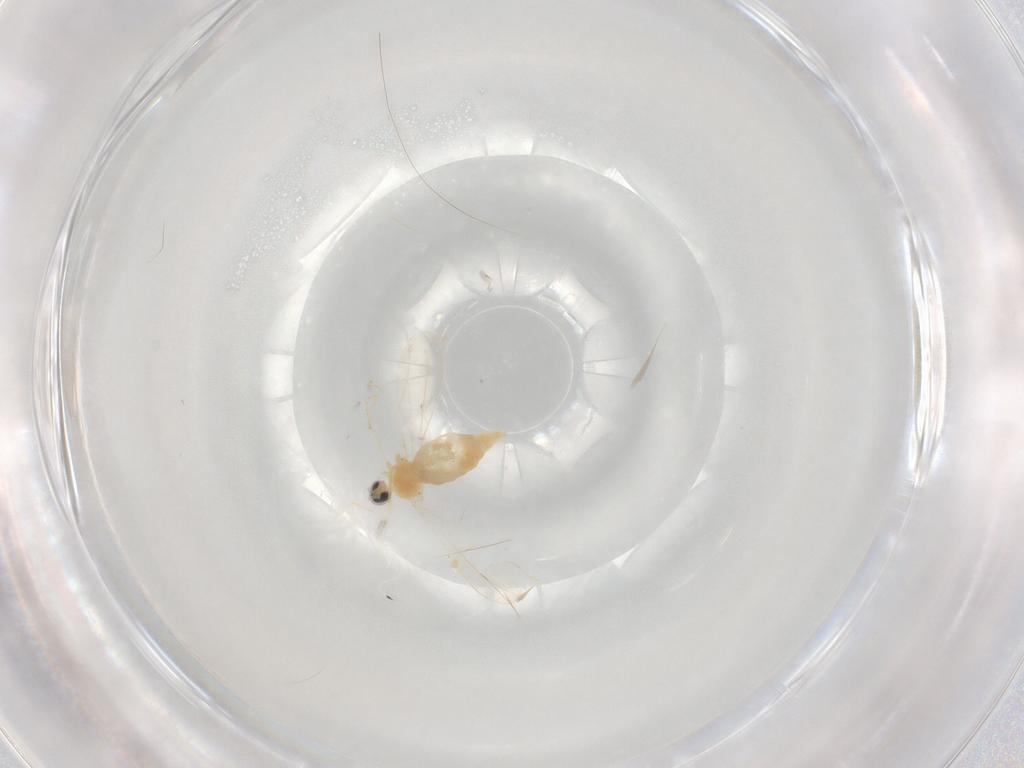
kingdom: Animalia
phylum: Arthropoda
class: Insecta
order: Diptera
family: Cecidomyiidae
